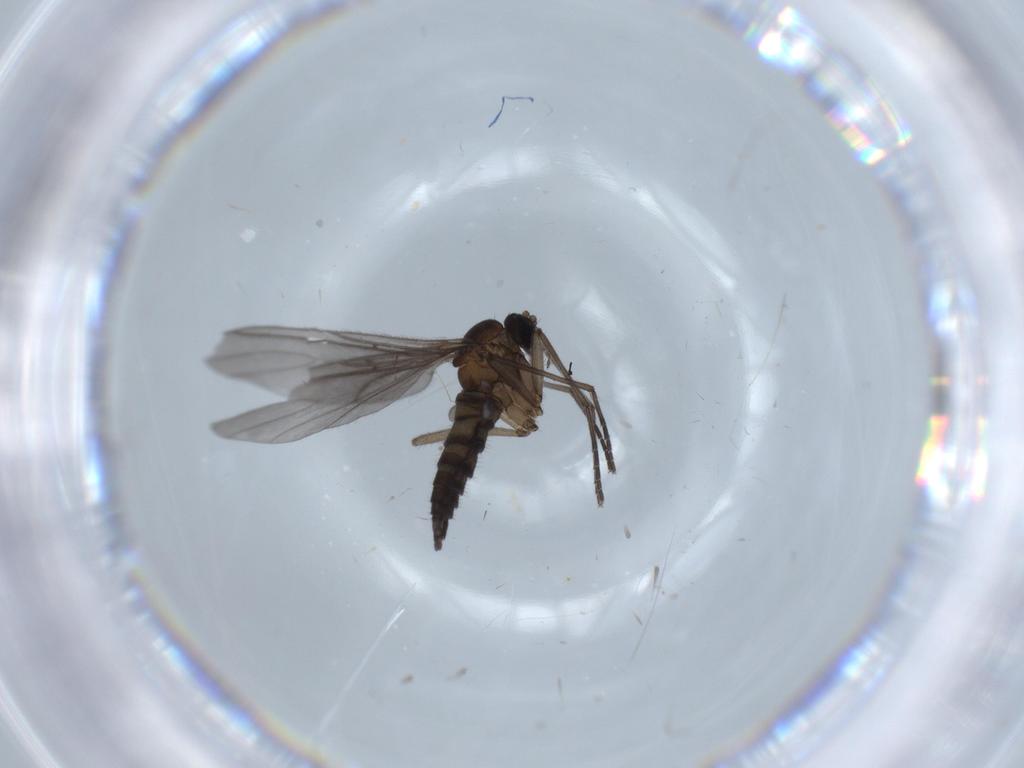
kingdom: Animalia
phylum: Arthropoda
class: Insecta
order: Diptera
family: Sciaridae
